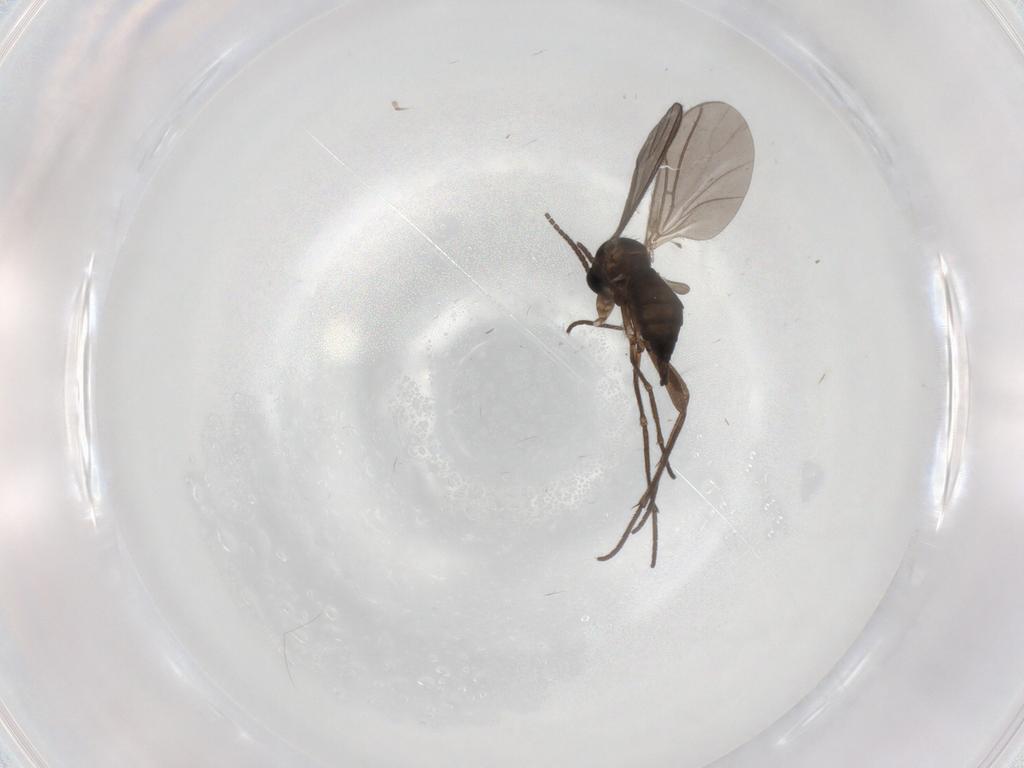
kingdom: Animalia
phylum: Arthropoda
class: Insecta
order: Diptera
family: Sciaridae
